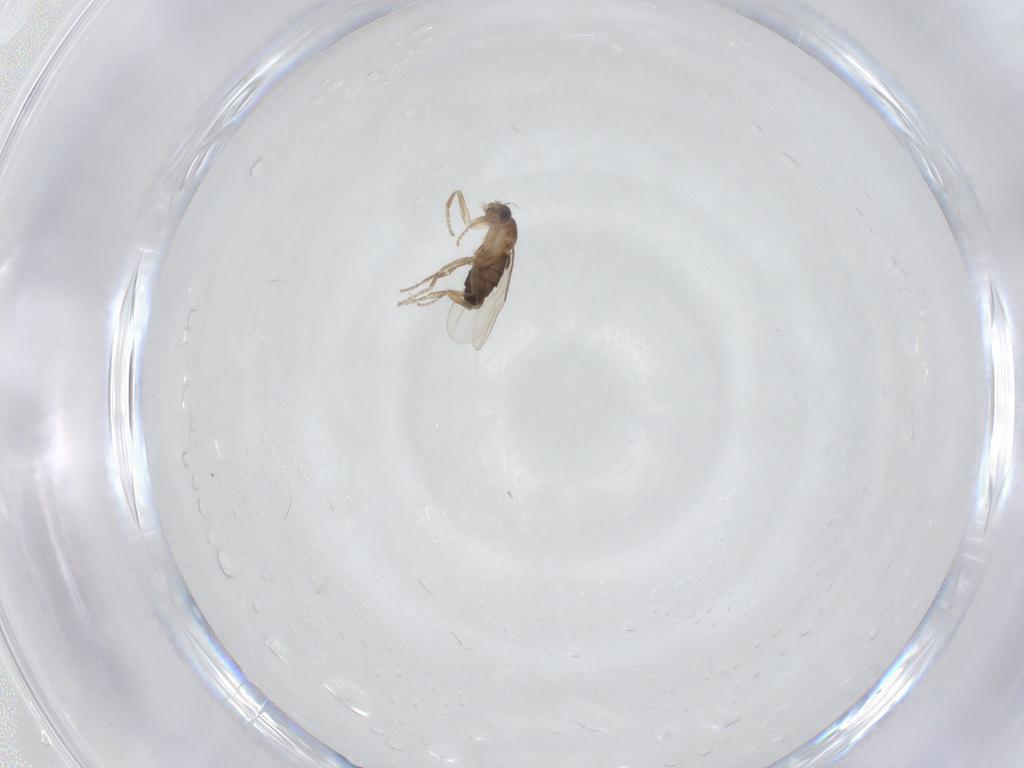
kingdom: Animalia
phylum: Arthropoda
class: Insecta
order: Diptera
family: Phoridae
